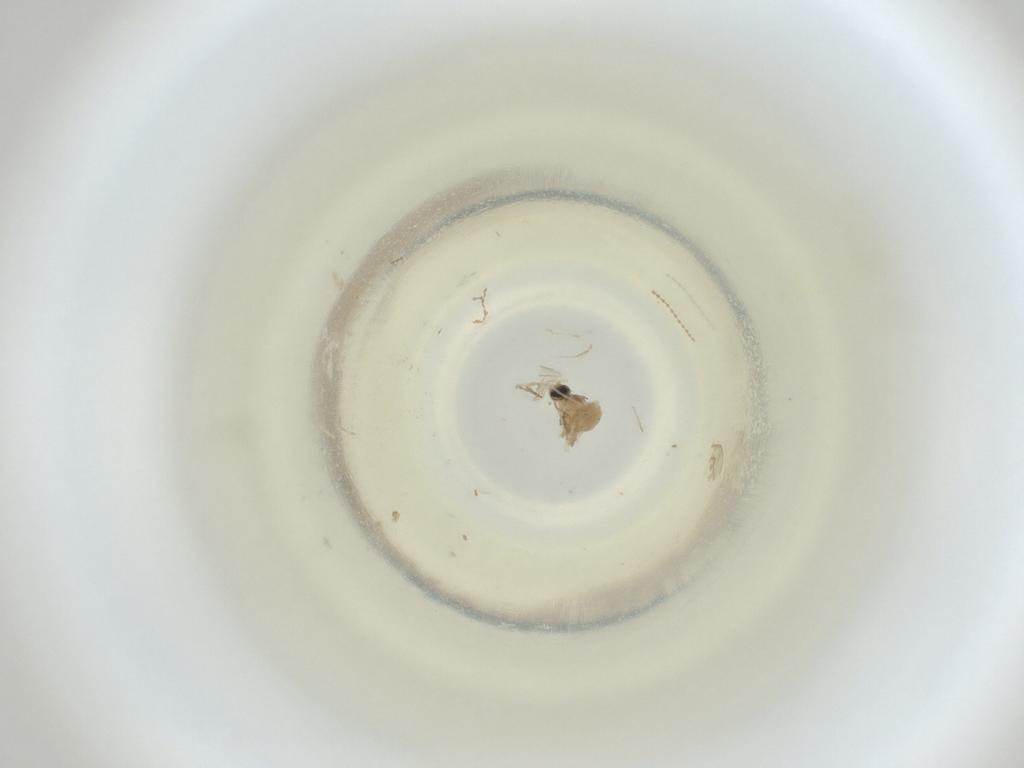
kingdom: Animalia
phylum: Arthropoda
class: Insecta
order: Diptera
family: Cecidomyiidae
